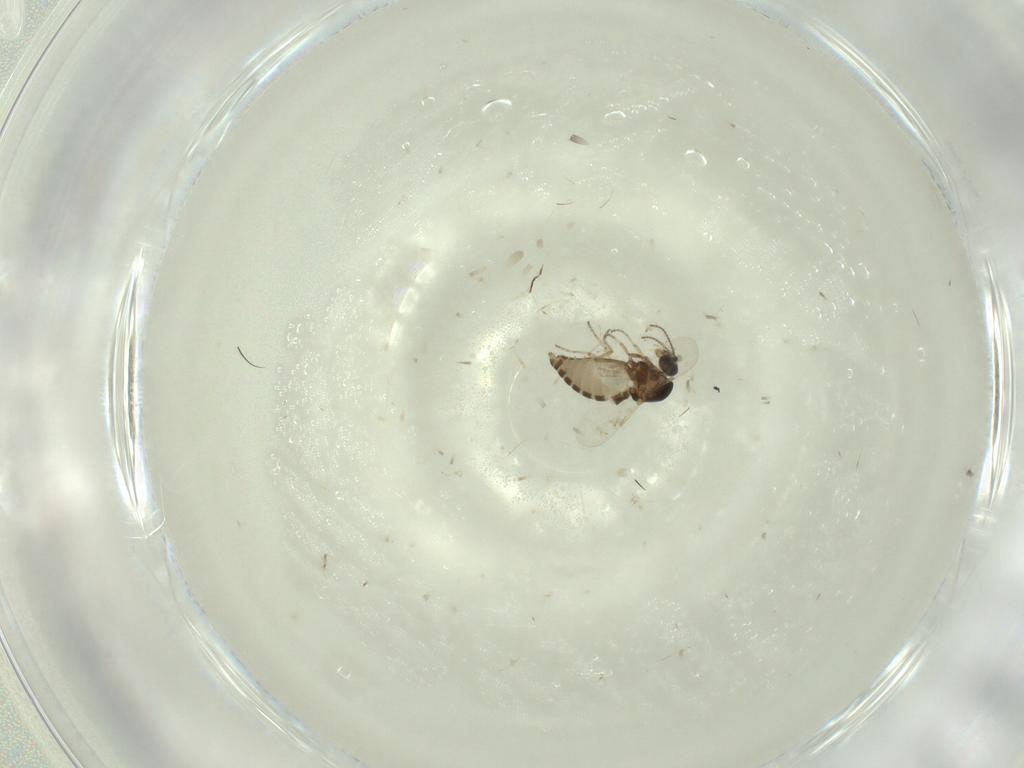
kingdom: Animalia
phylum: Arthropoda
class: Insecta
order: Diptera
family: Ceratopogonidae
